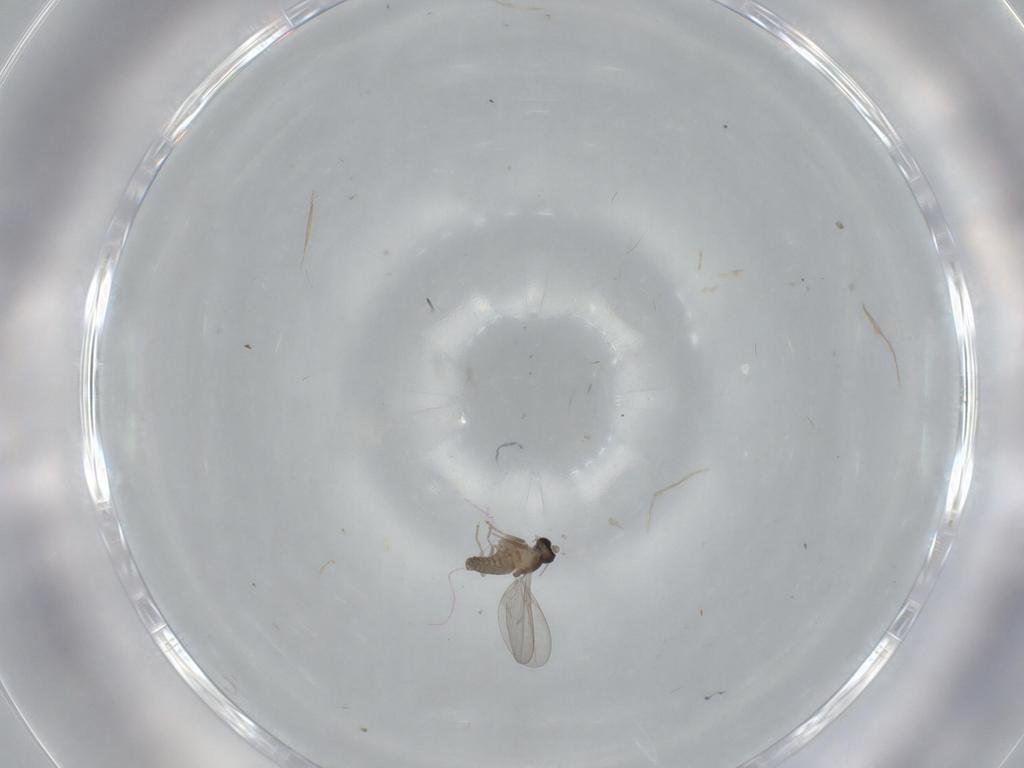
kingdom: Animalia
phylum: Arthropoda
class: Insecta
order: Diptera
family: Cecidomyiidae
